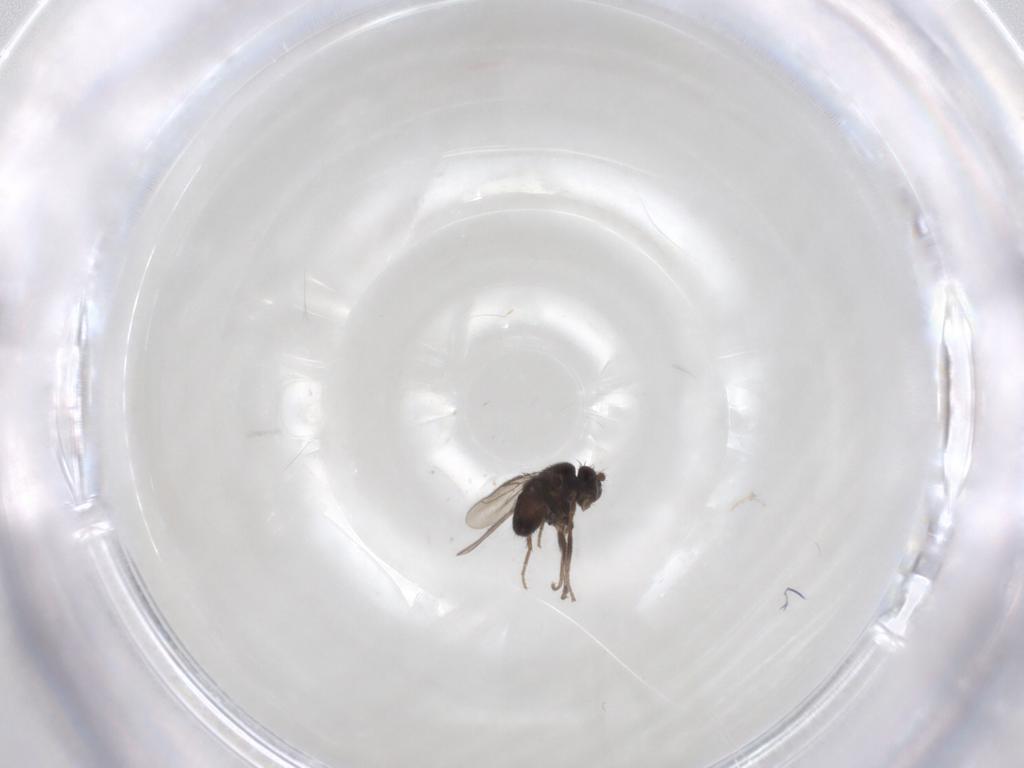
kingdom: Animalia
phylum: Arthropoda
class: Insecta
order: Diptera
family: Sphaeroceridae
